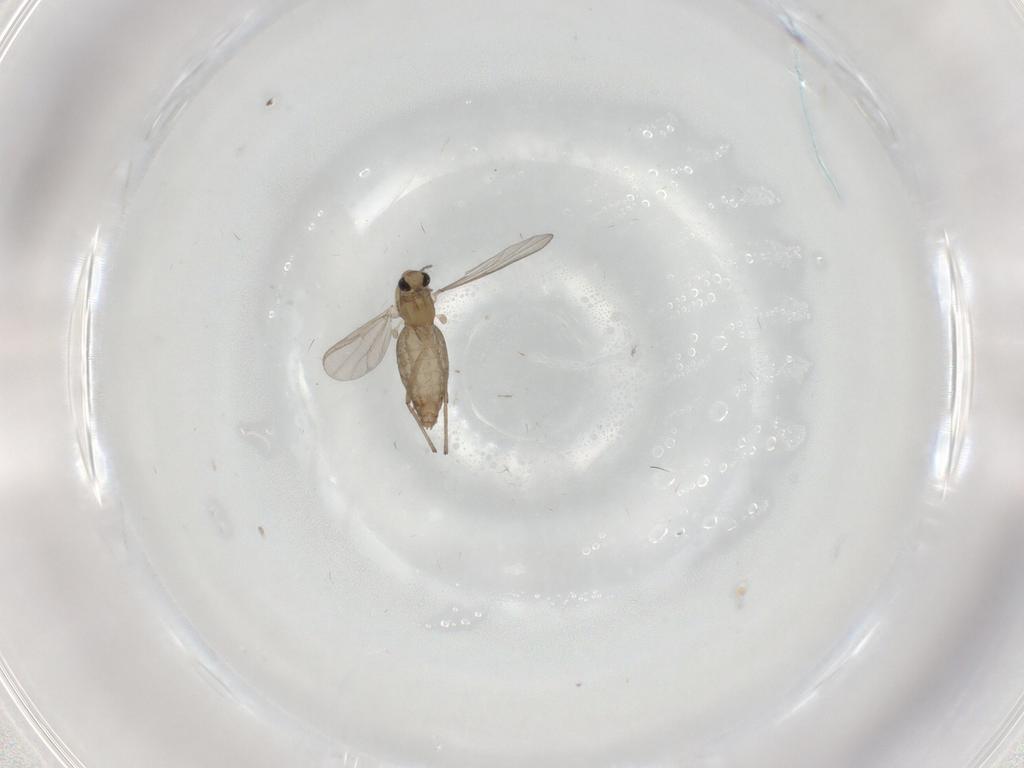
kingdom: Animalia
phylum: Arthropoda
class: Insecta
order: Diptera
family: Chironomidae
